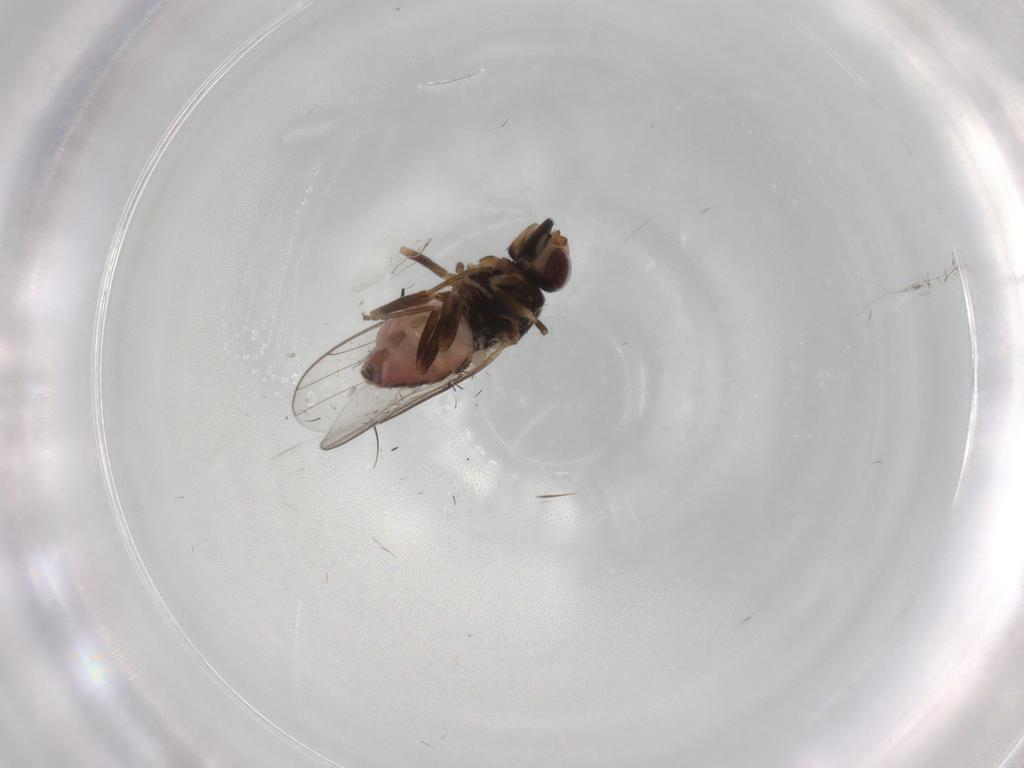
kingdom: Animalia
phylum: Arthropoda
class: Insecta
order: Diptera
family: Chloropidae
